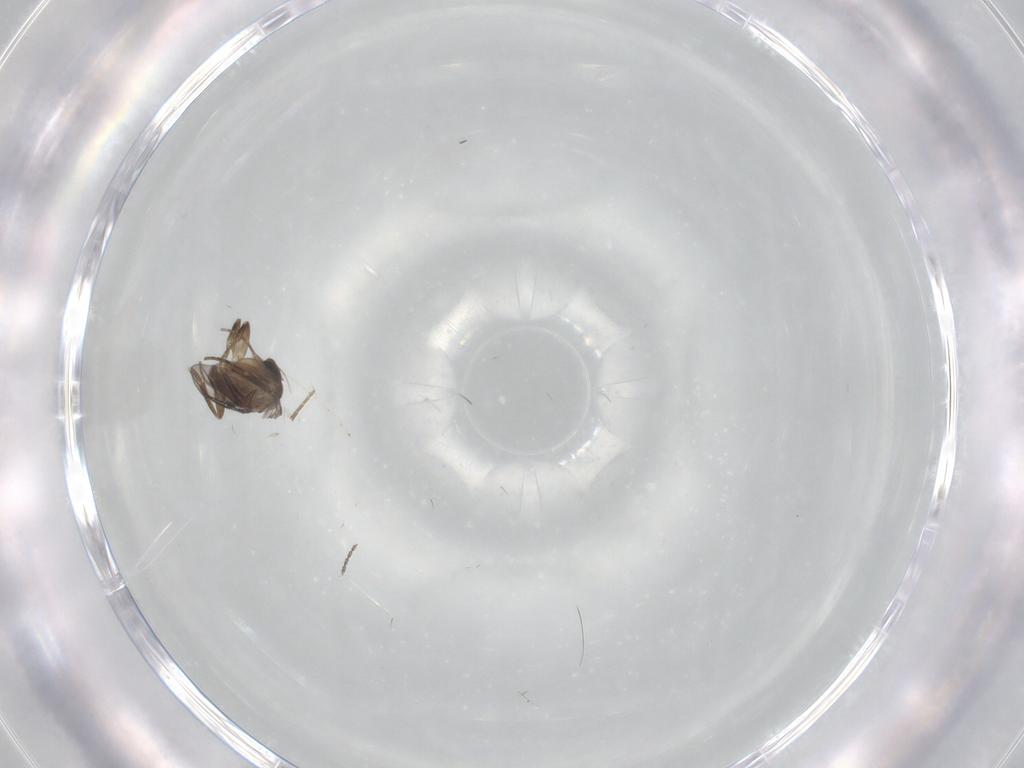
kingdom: Animalia
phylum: Arthropoda
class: Insecta
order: Diptera
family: Cecidomyiidae
